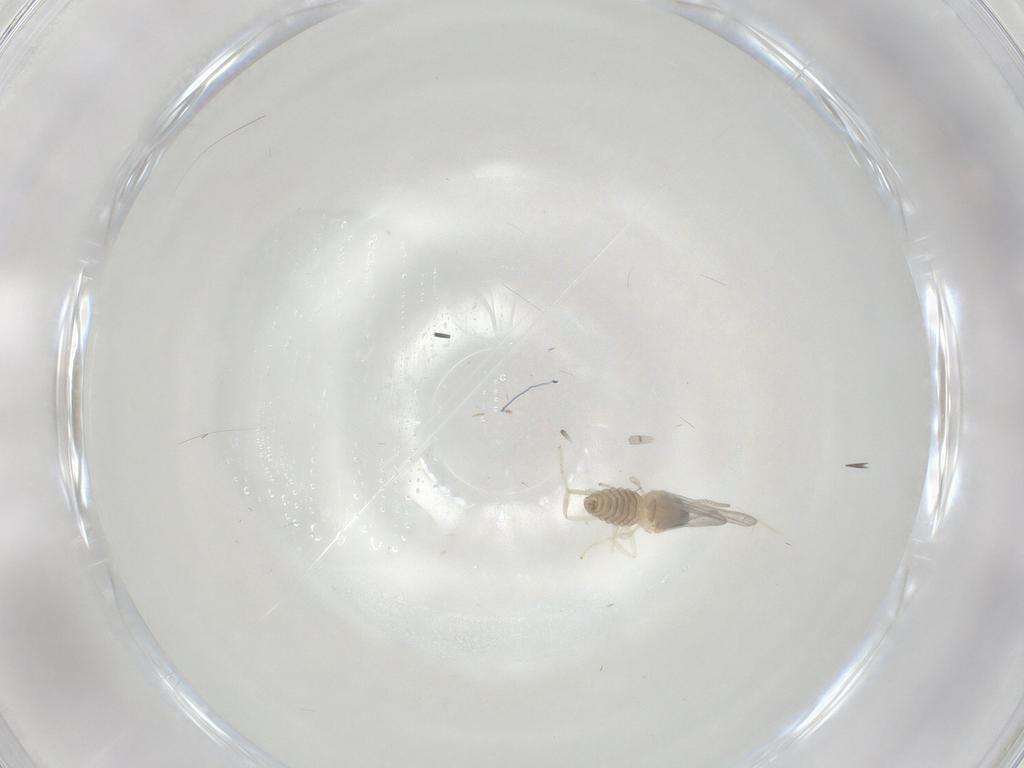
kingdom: Animalia
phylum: Arthropoda
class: Insecta
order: Diptera
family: Cecidomyiidae
